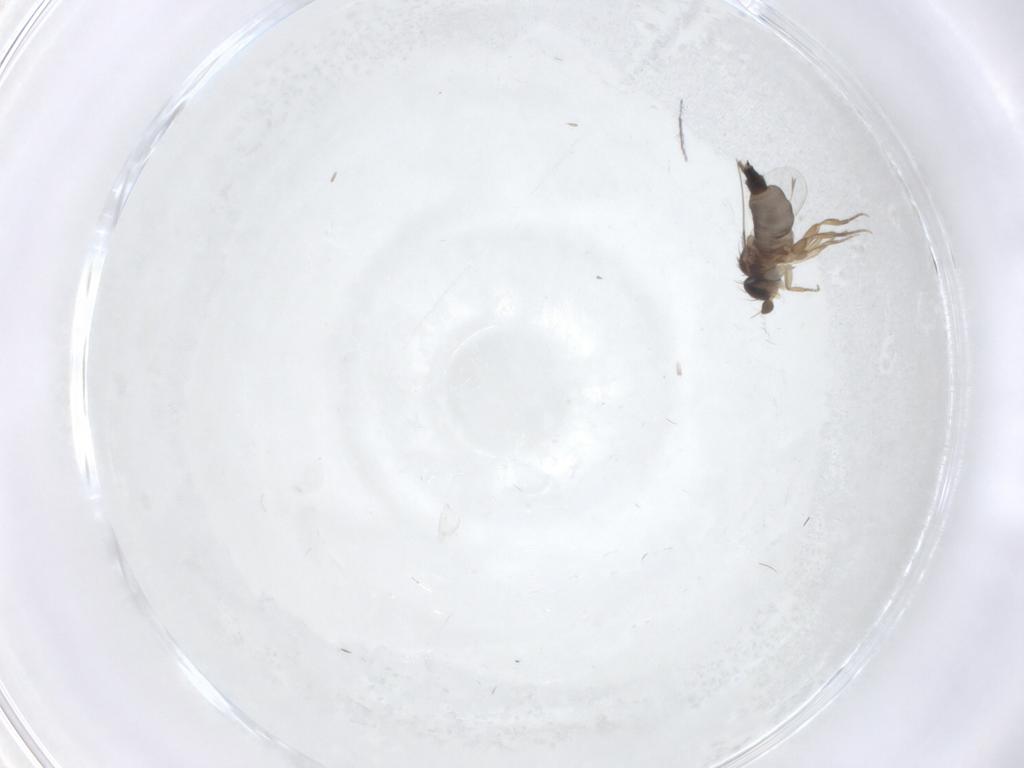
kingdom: Animalia
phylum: Arthropoda
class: Insecta
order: Diptera
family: Phoridae
